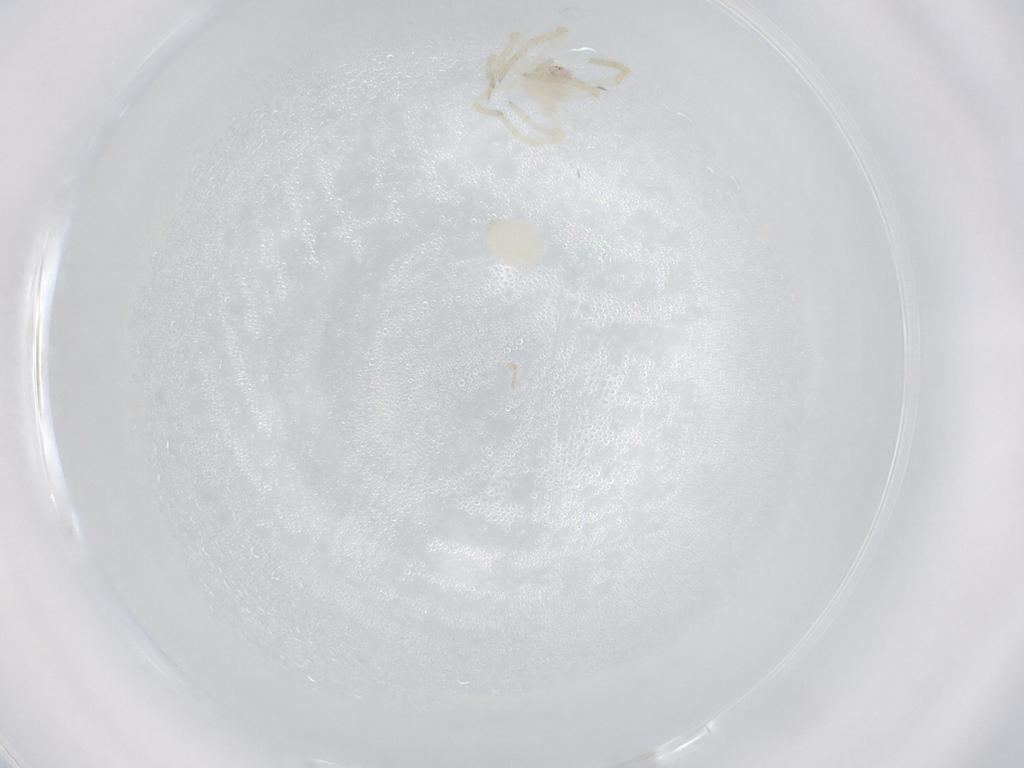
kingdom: Animalia
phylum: Arthropoda
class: Arachnida
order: Araneae
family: Theridiidae
